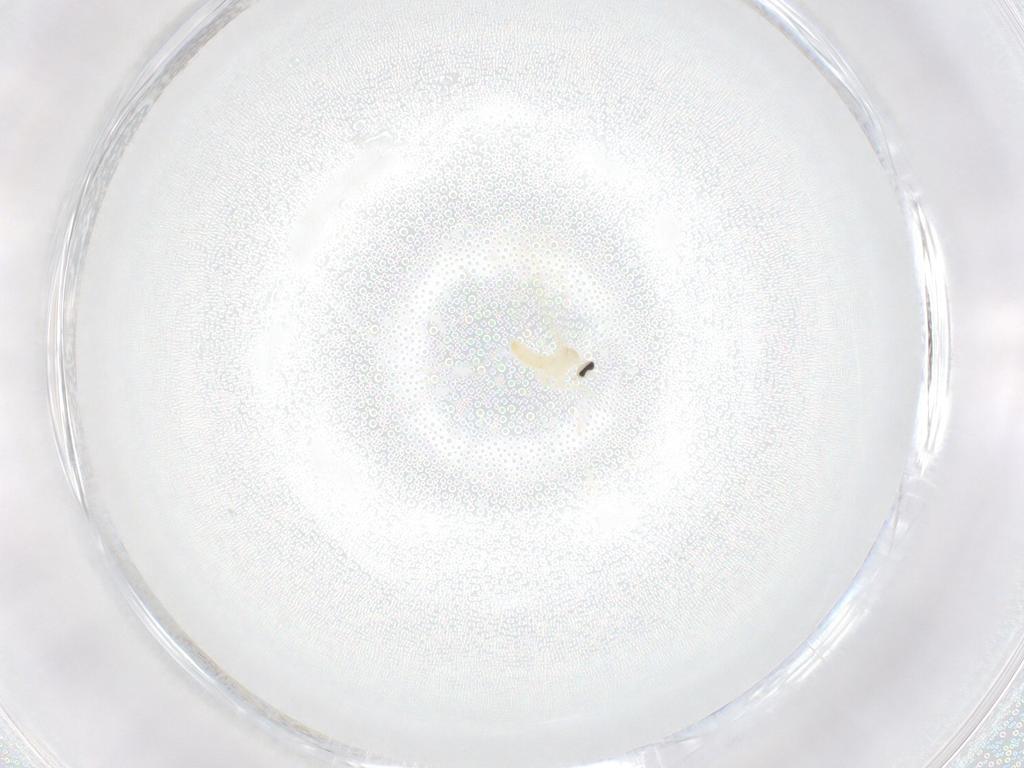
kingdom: Animalia
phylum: Arthropoda
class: Insecta
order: Diptera
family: Cecidomyiidae
